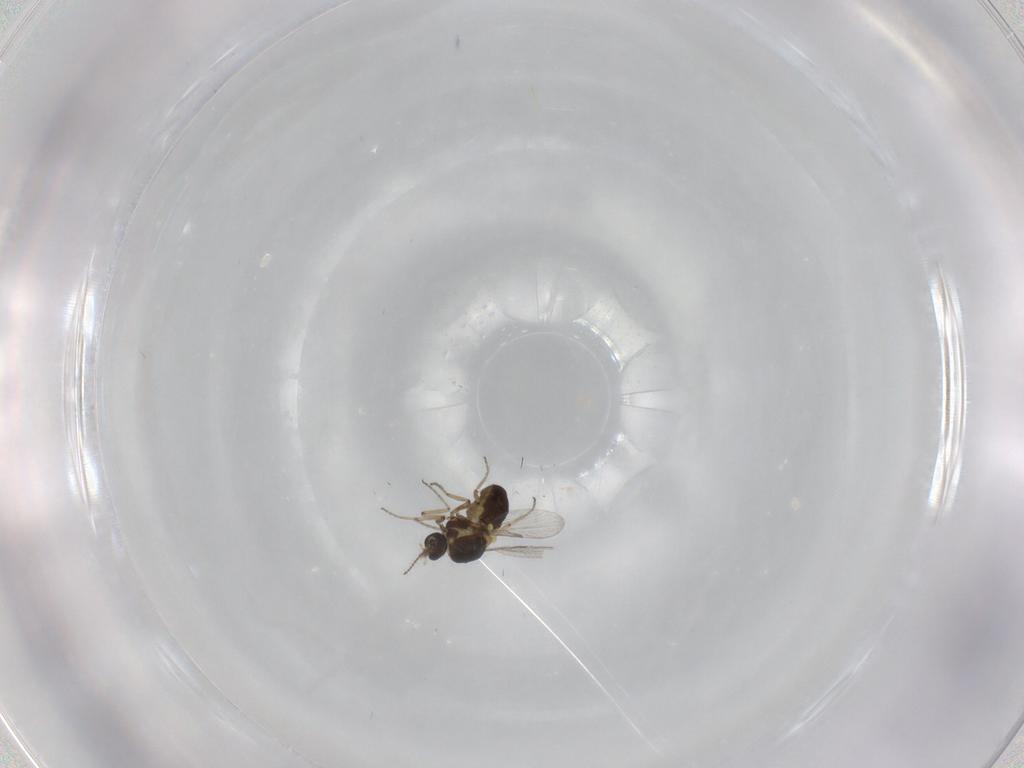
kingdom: Animalia
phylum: Arthropoda
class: Insecta
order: Diptera
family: Ceratopogonidae
